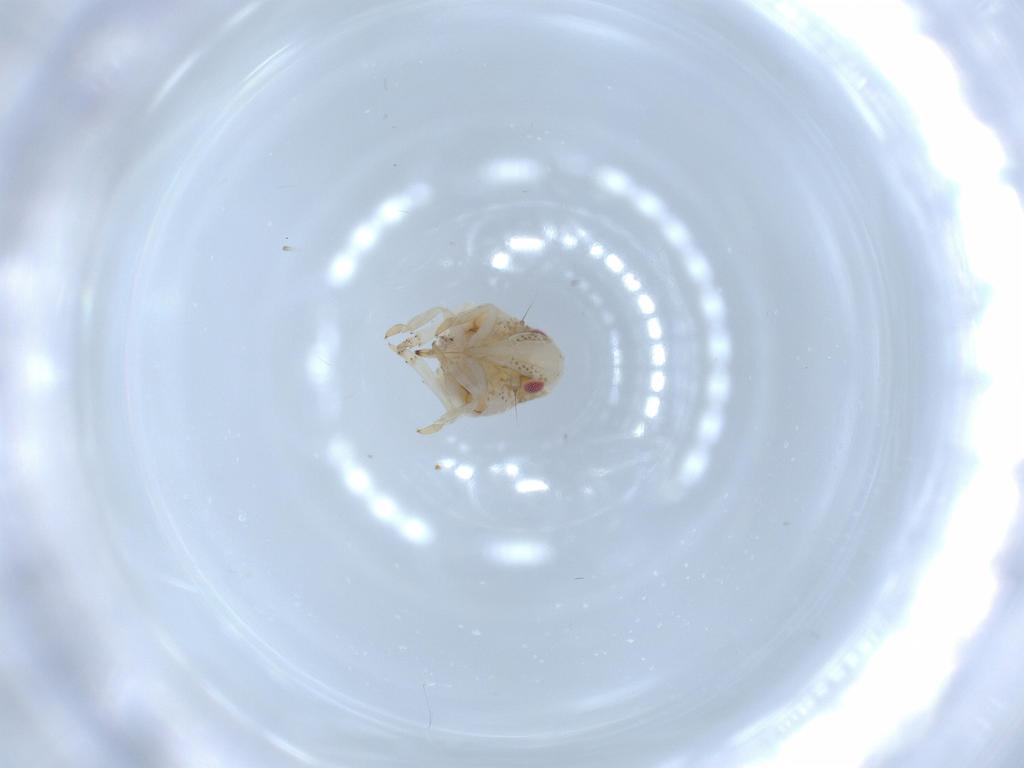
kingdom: Animalia
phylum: Arthropoda
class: Insecta
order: Hemiptera
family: Acanaloniidae
